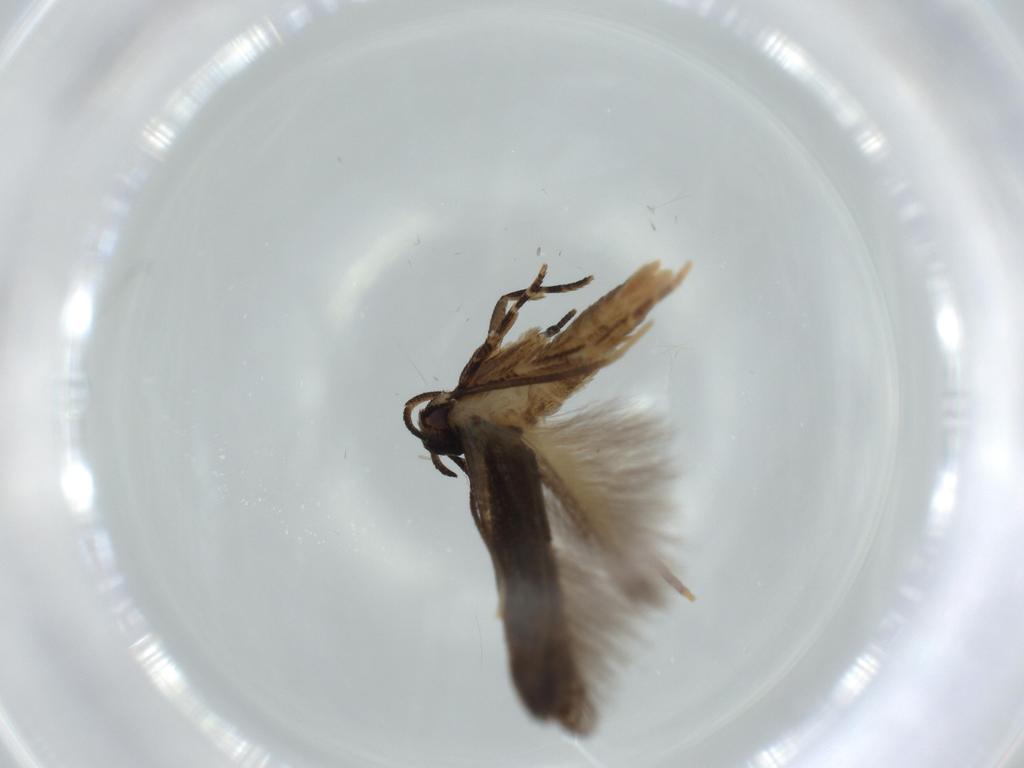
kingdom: Animalia
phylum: Arthropoda
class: Insecta
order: Lepidoptera
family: Cosmopterigidae
